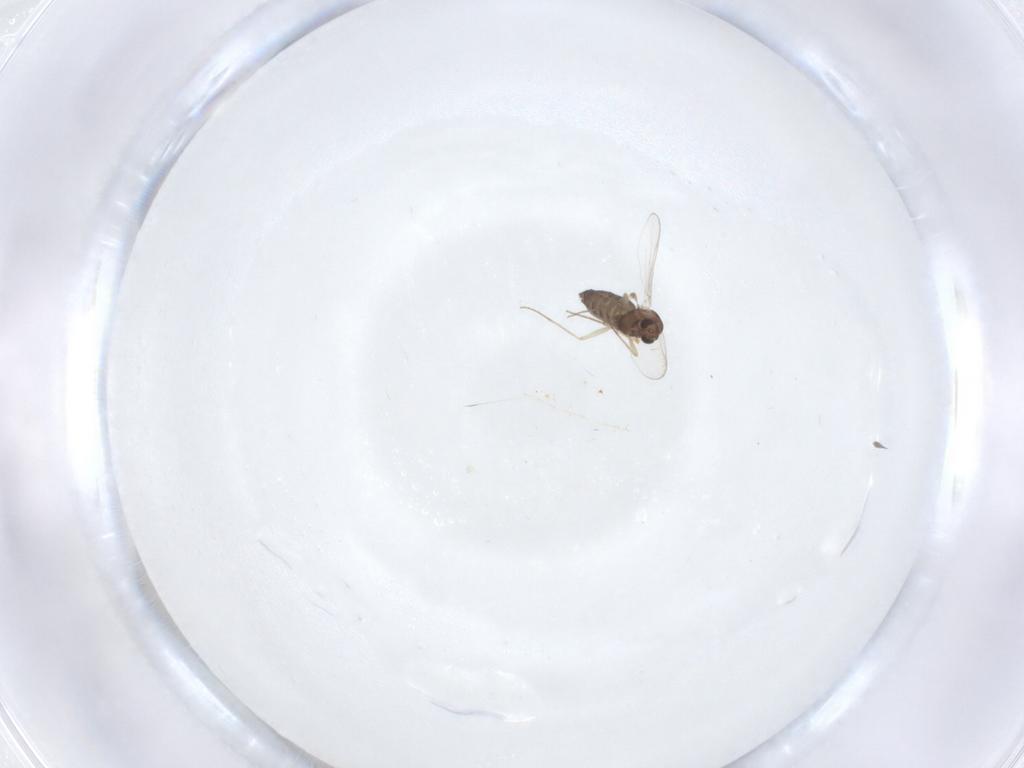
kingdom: Animalia
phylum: Arthropoda
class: Insecta
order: Diptera
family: Chironomidae
